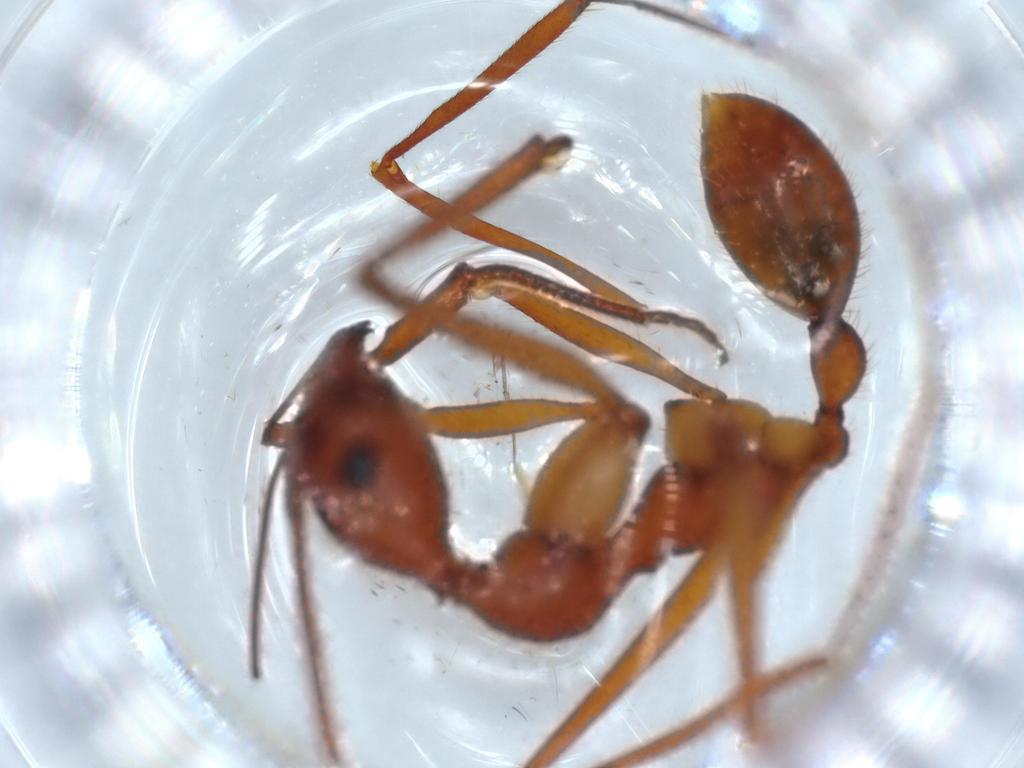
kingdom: Animalia
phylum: Arthropoda
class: Insecta
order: Hymenoptera
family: Formicidae
